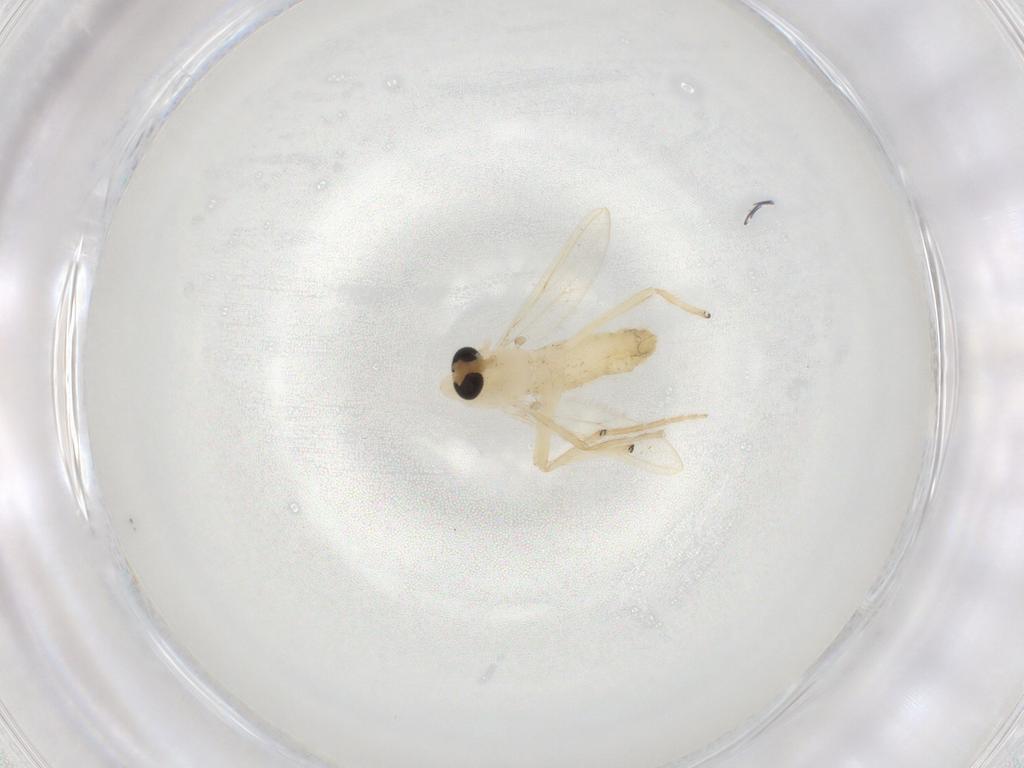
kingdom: Animalia
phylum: Arthropoda
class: Insecta
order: Diptera
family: Chironomidae
